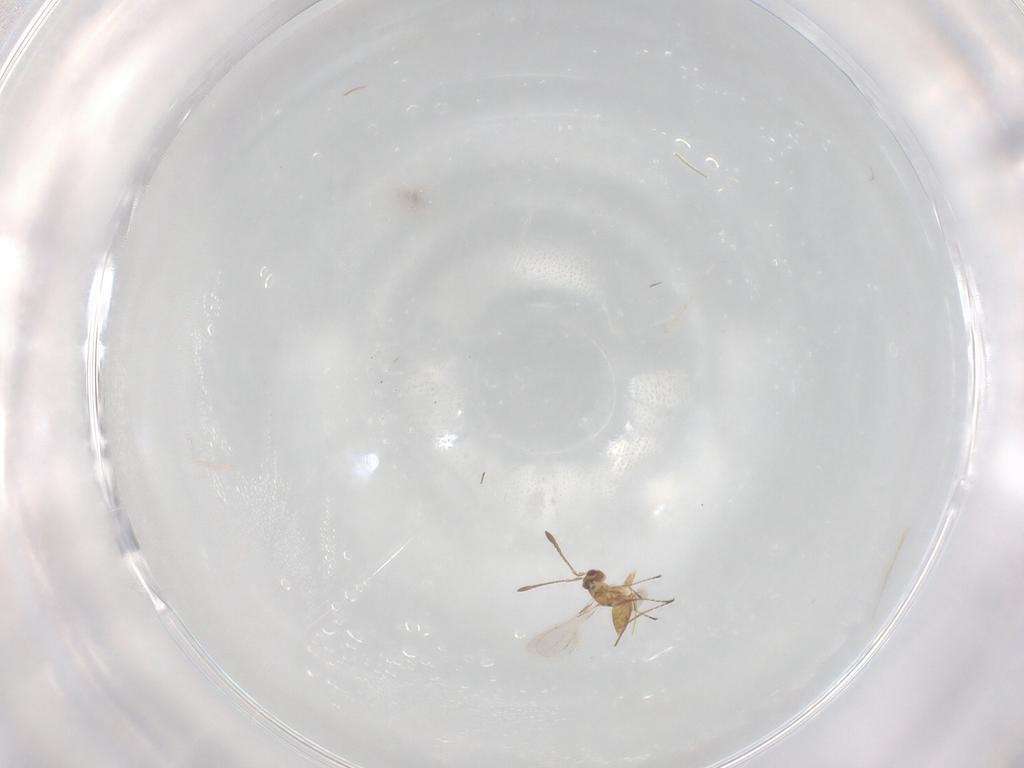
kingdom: Animalia
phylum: Arthropoda
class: Insecta
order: Hymenoptera
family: Mymaridae
